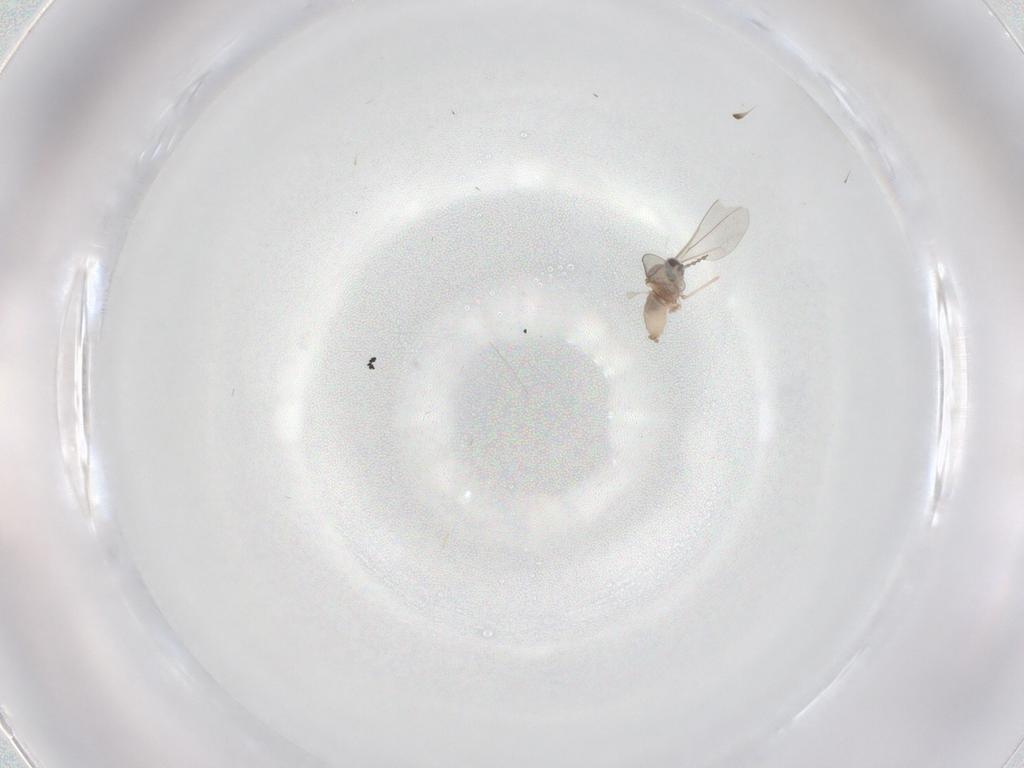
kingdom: Animalia
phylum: Arthropoda
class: Insecta
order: Diptera
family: Cecidomyiidae
